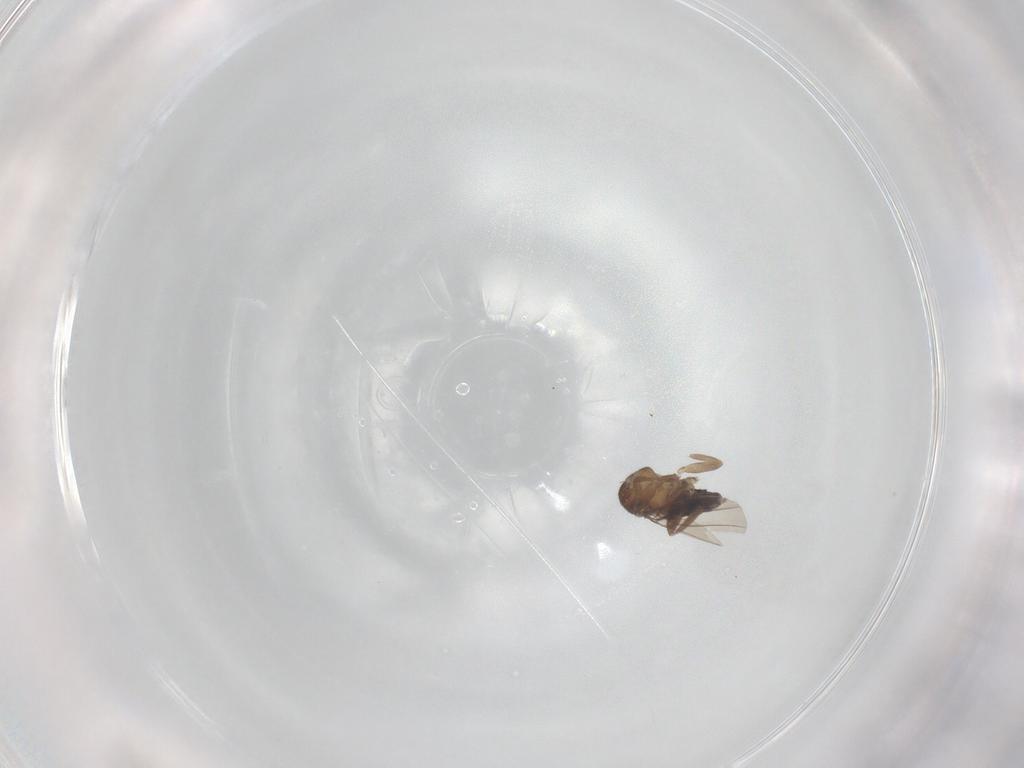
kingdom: Animalia
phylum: Arthropoda
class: Insecta
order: Diptera
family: Phoridae
